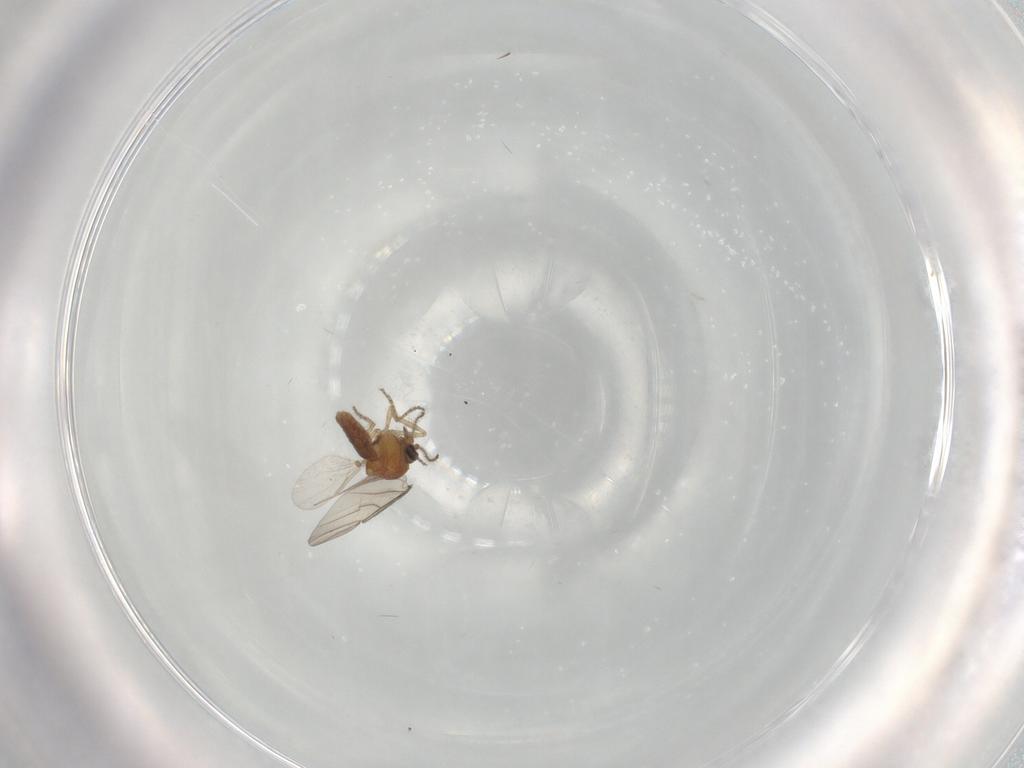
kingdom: Animalia
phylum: Arthropoda
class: Insecta
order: Diptera
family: Ceratopogonidae
